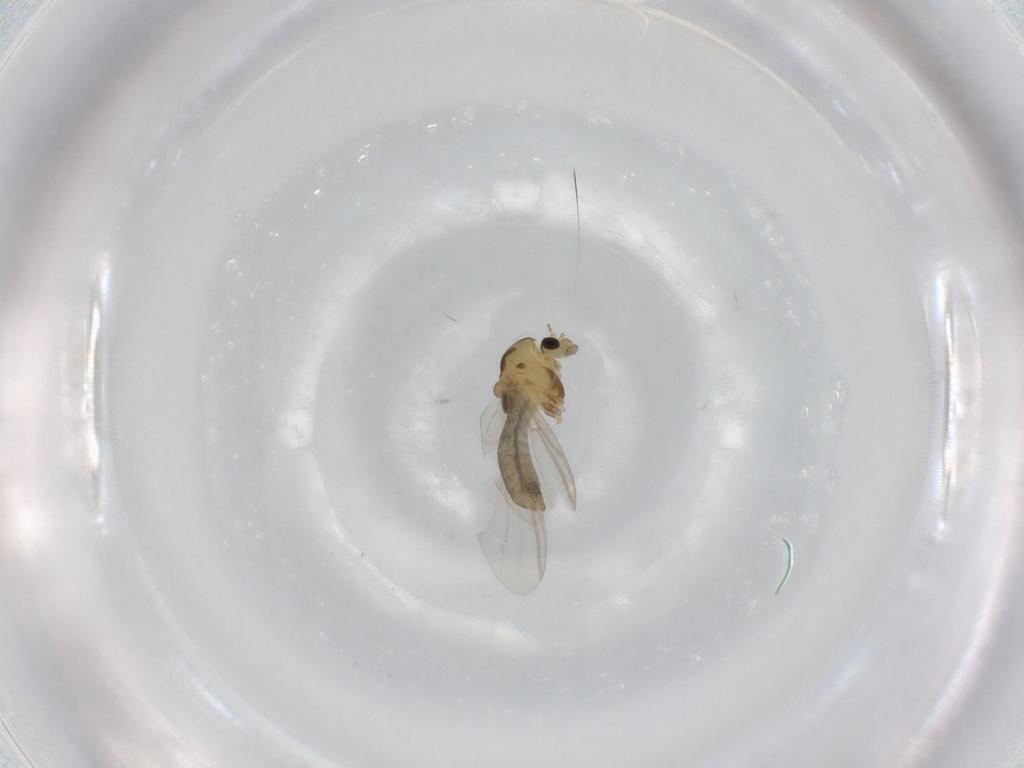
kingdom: Animalia
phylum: Arthropoda
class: Insecta
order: Diptera
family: Chironomidae
